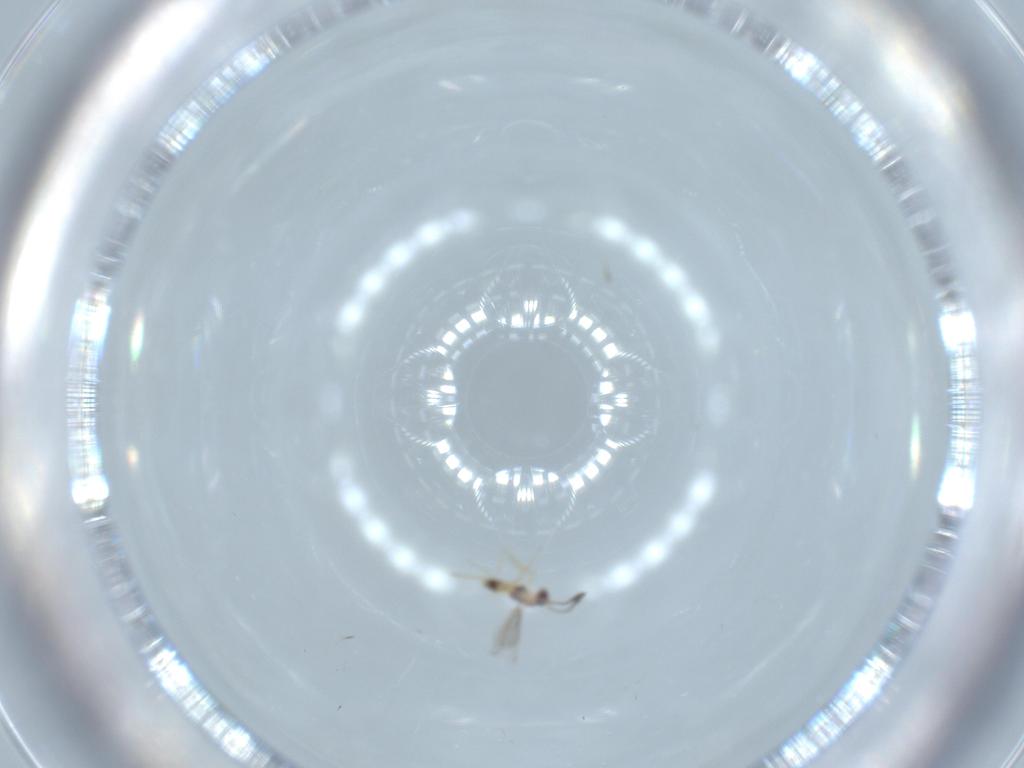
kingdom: Animalia
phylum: Arthropoda
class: Insecta
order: Hymenoptera
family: Mymaridae
